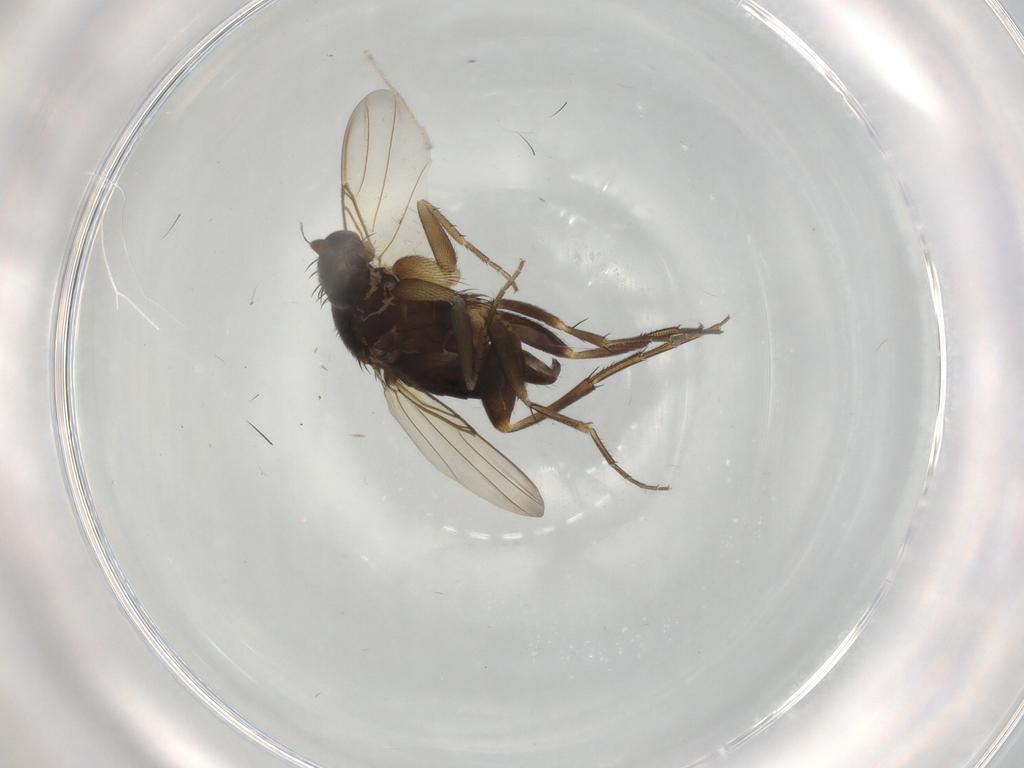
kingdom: Animalia
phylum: Arthropoda
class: Insecta
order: Diptera
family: Phoridae
